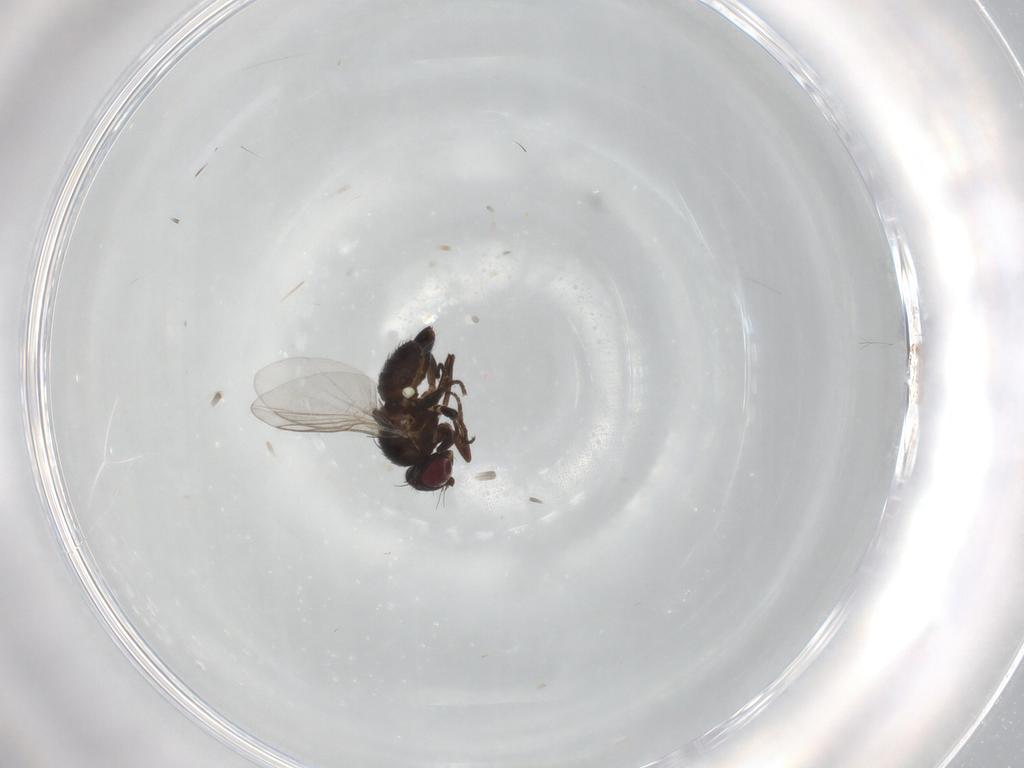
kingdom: Animalia
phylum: Arthropoda
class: Insecta
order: Diptera
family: Agromyzidae
